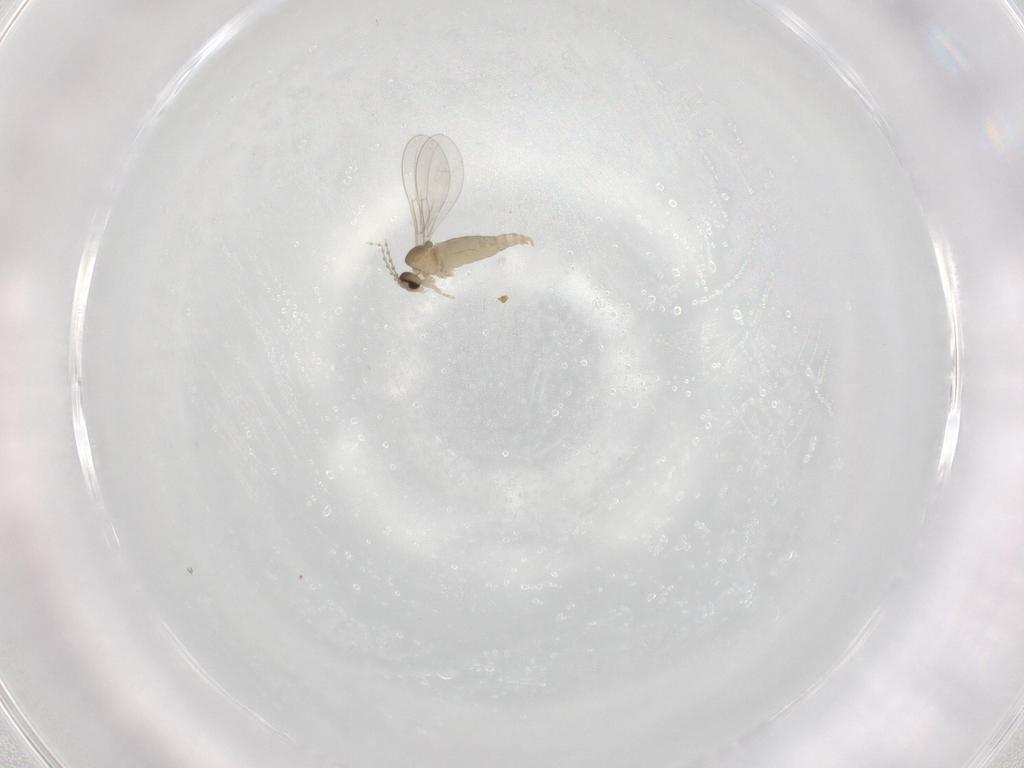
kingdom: Animalia
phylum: Arthropoda
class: Insecta
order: Diptera
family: Cecidomyiidae
